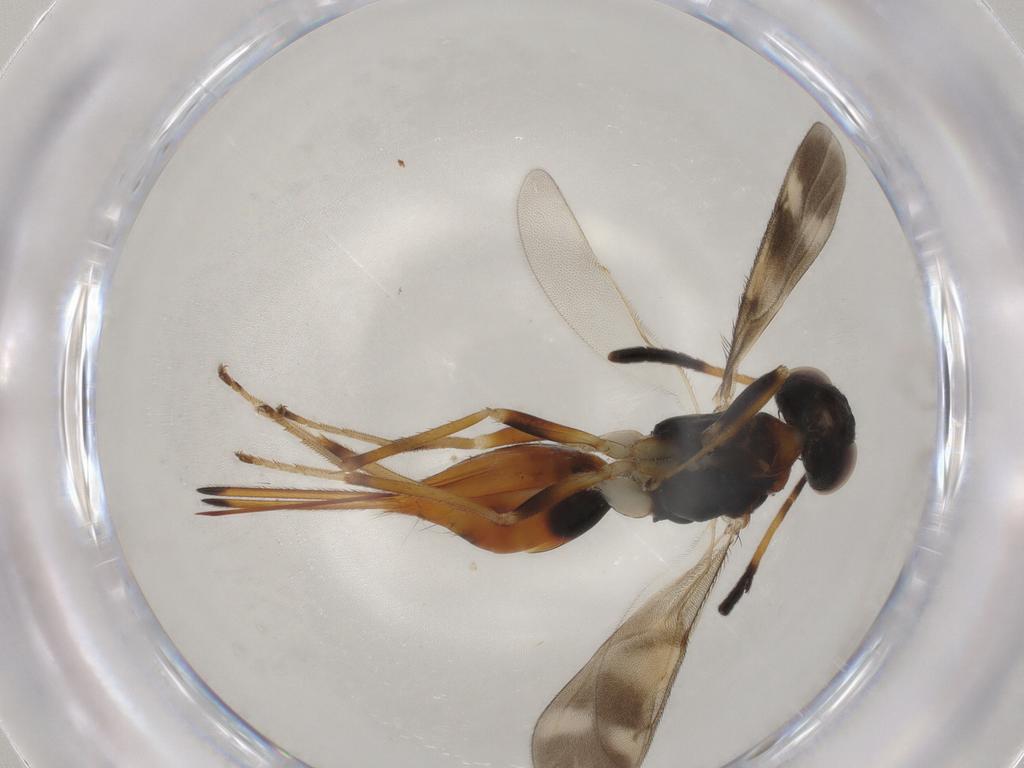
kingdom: Animalia
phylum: Arthropoda
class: Insecta
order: Hymenoptera
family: Diparidae
